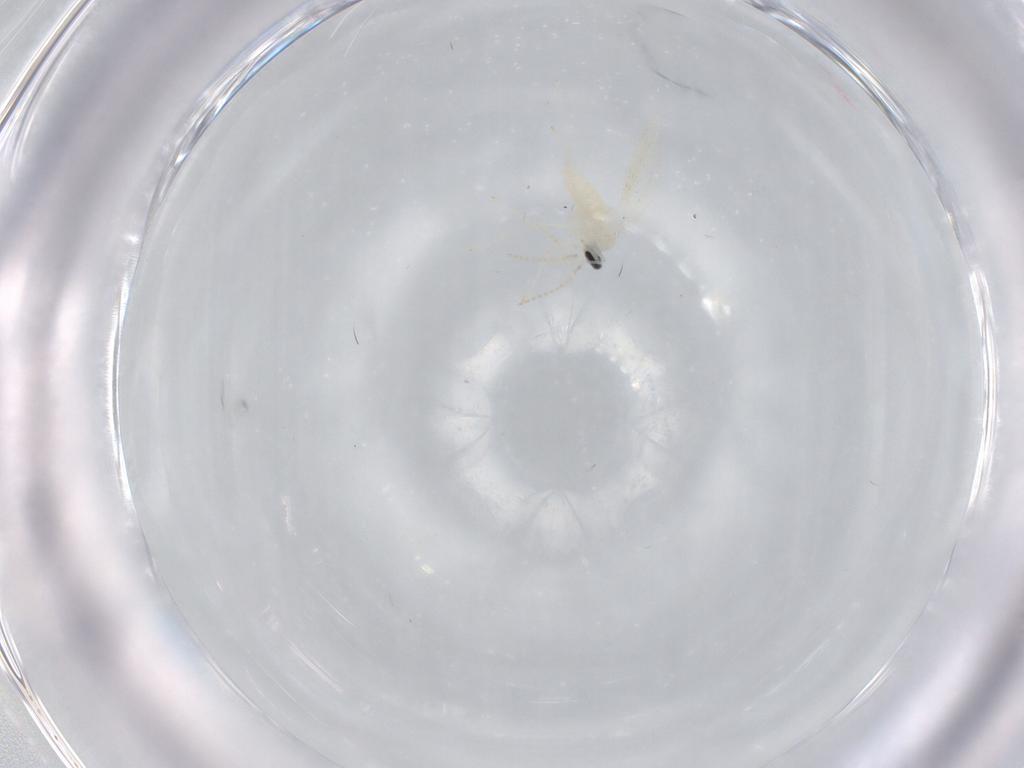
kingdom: Animalia
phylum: Arthropoda
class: Insecta
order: Diptera
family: Cecidomyiidae
